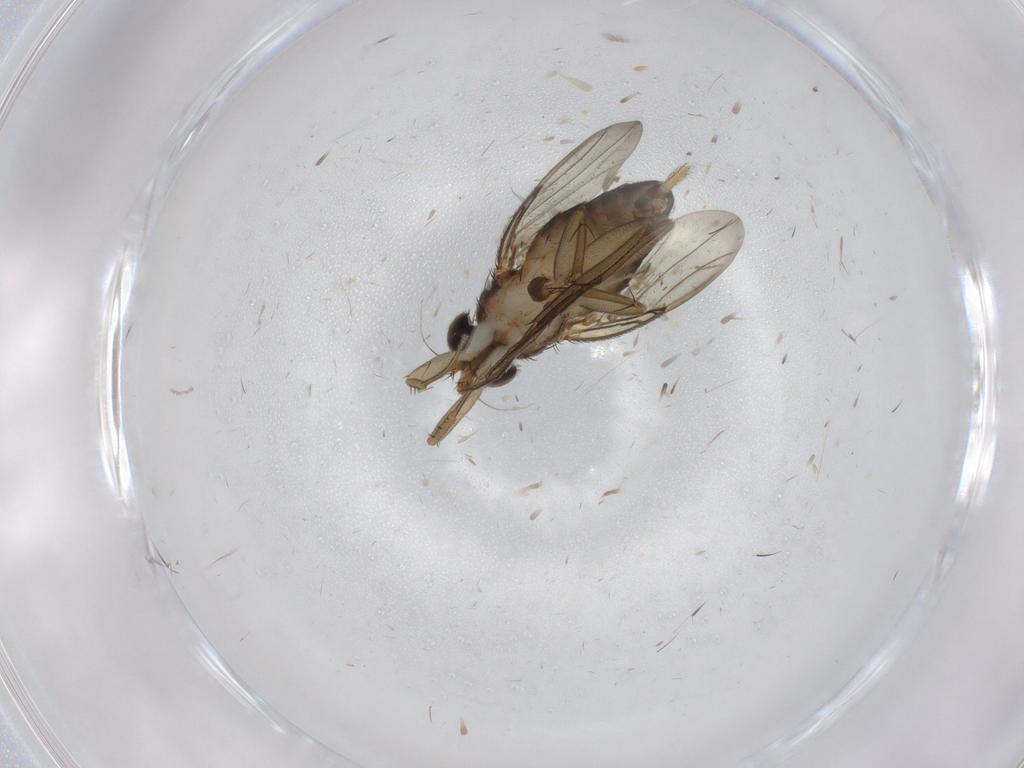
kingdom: Animalia
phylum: Arthropoda
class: Insecta
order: Diptera
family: Phoridae
